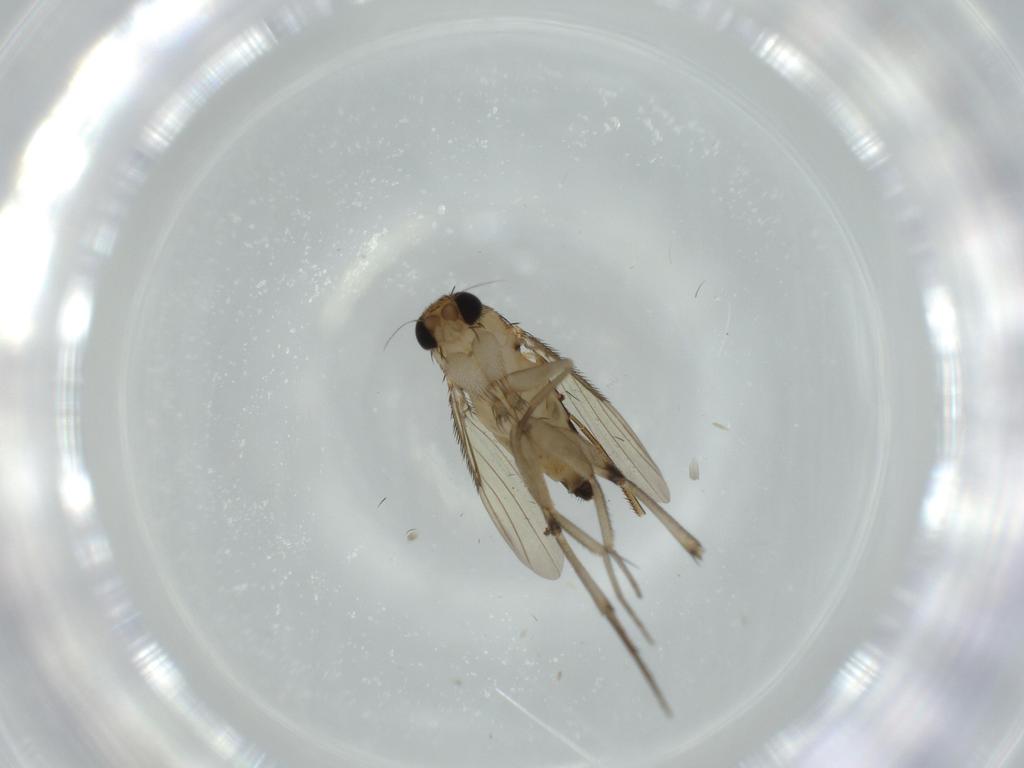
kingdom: Animalia
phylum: Arthropoda
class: Insecta
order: Diptera
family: Phoridae
